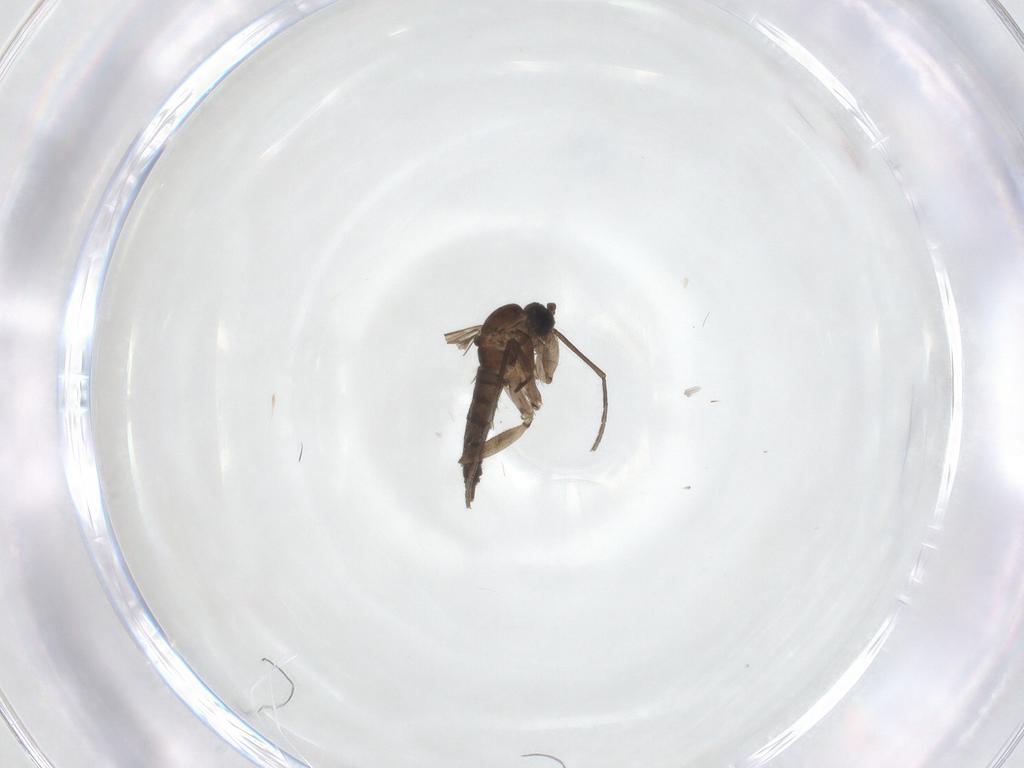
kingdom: Animalia
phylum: Arthropoda
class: Insecta
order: Diptera
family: Sciaridae
